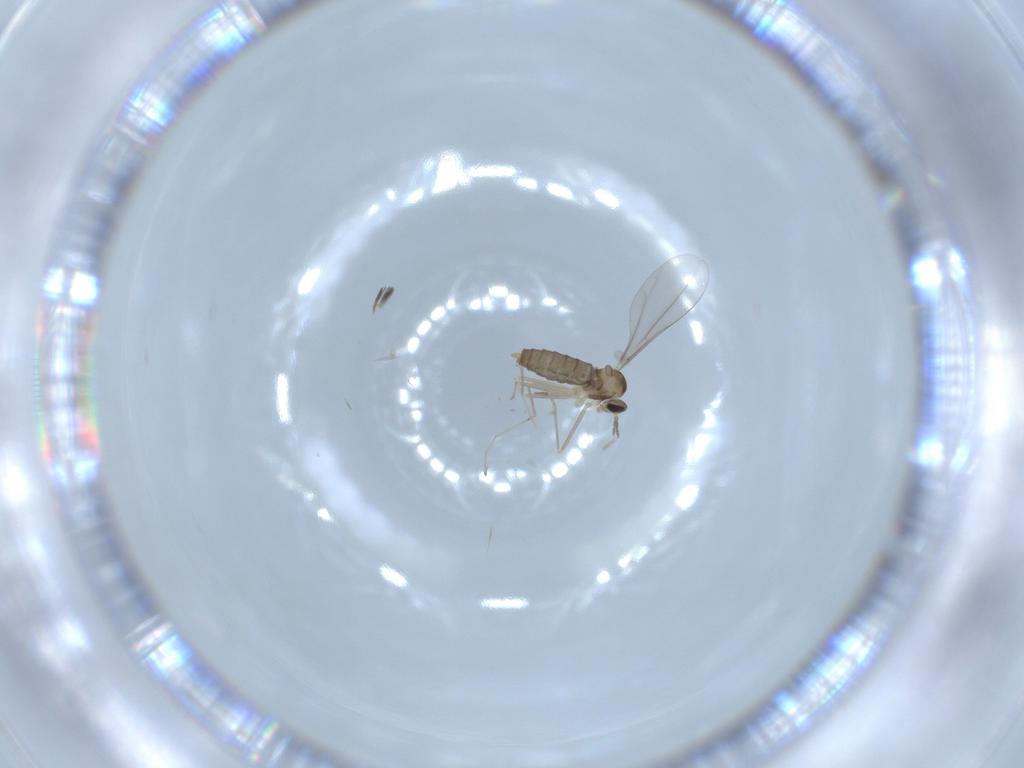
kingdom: Animalia
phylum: Arthropoda
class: Insecta
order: Diptera
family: Cecidomyiidae
